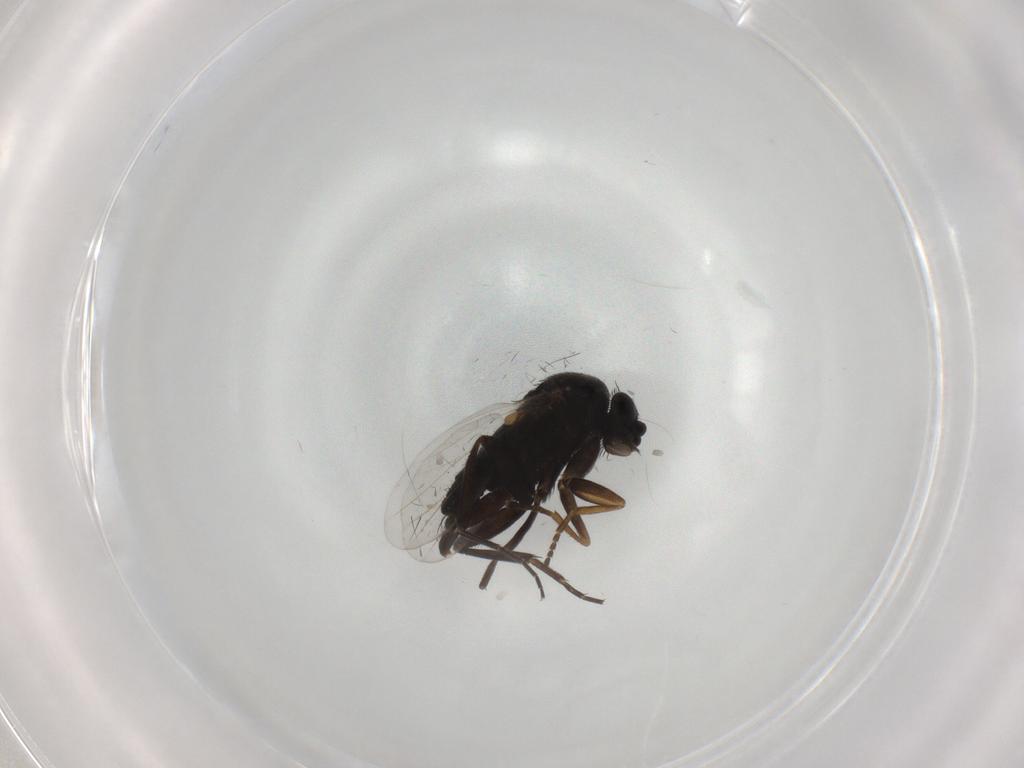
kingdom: Animalia
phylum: Arthropoda
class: Insecta
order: Diptera
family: Phoridae
